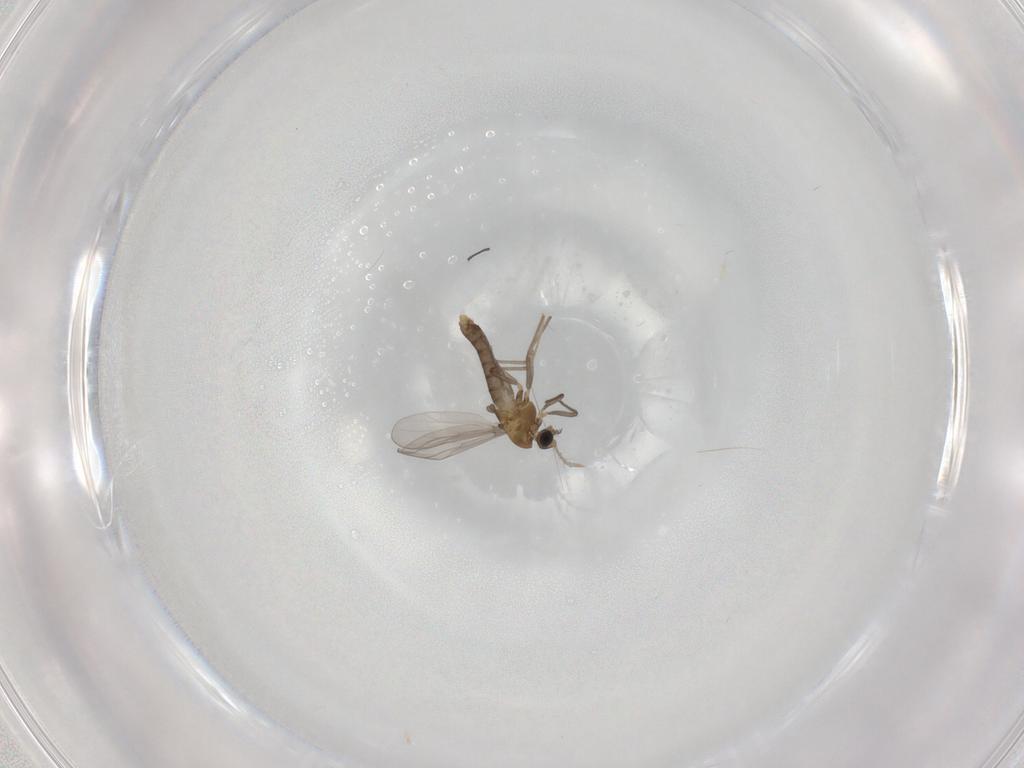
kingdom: Animalia
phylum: Arthropoda
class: Insecta
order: Diptera
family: Chironomidae
